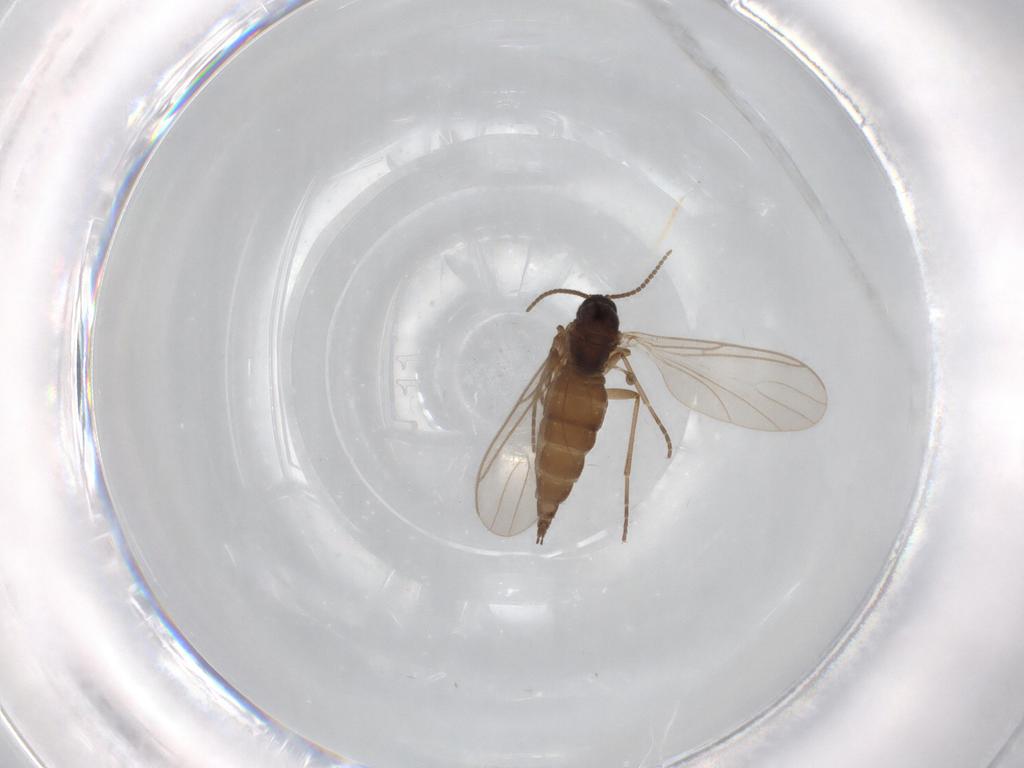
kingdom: Animalia
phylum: Arthropoda
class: Insecta
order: Diptera
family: Sciaridae
